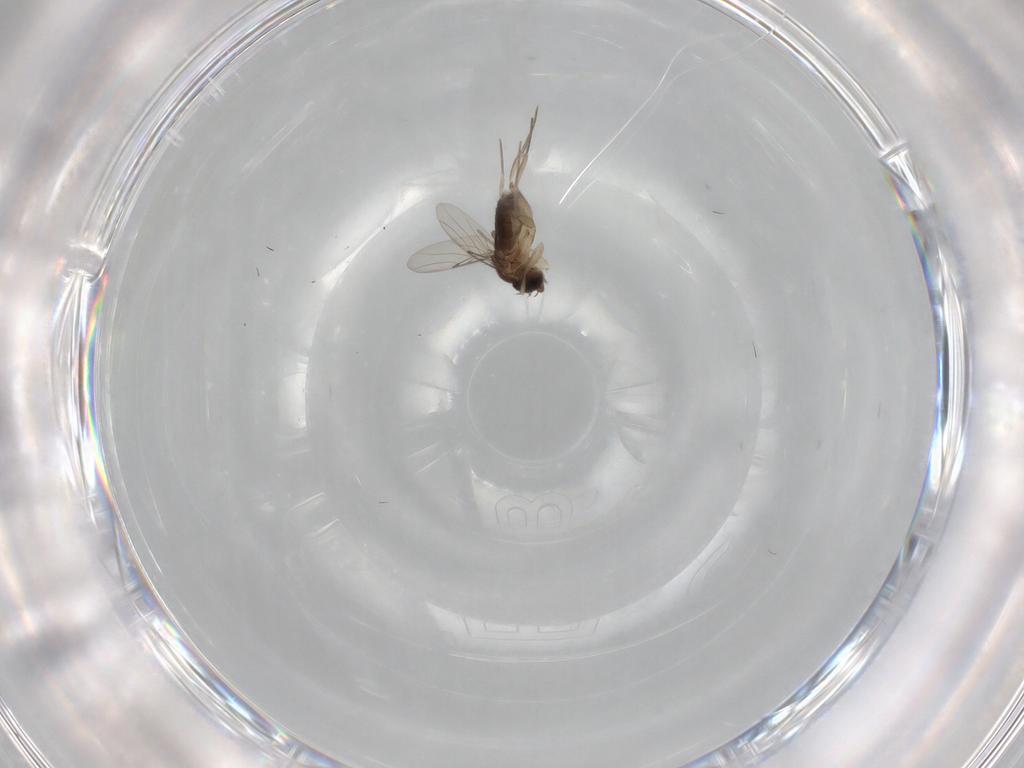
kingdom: Animalia
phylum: Arthropoda
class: Insecta
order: Diptera
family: Phoridae
